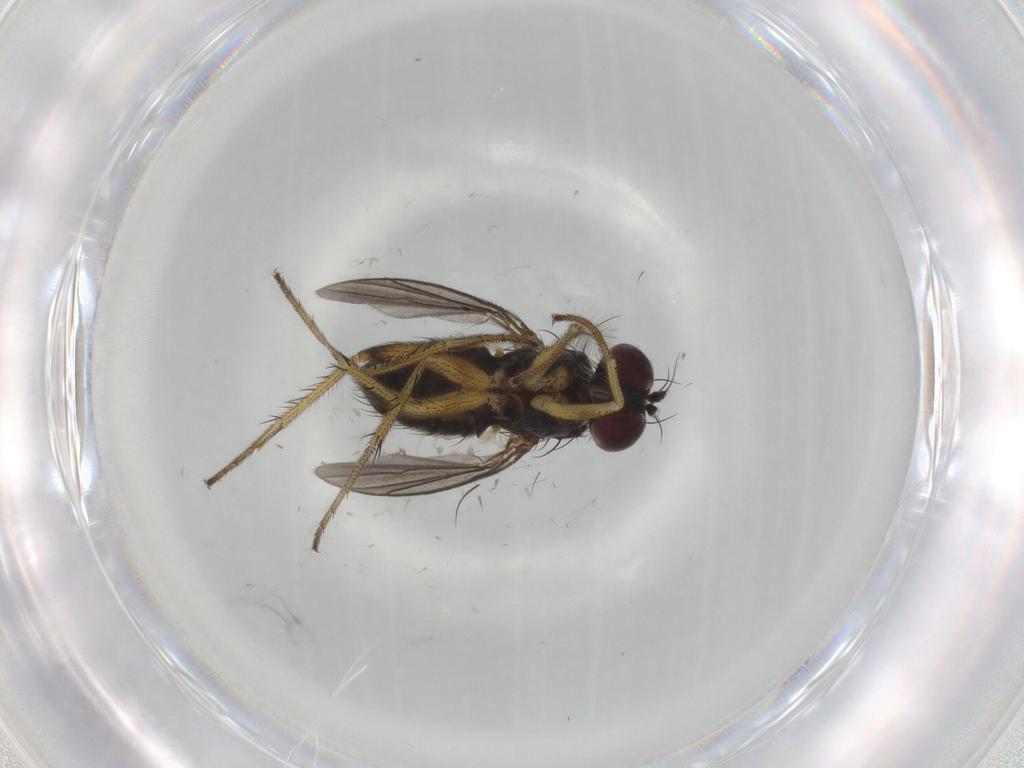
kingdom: Animalia
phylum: Arthropoda
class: Insecta
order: Diptera
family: Dolichopodidae
